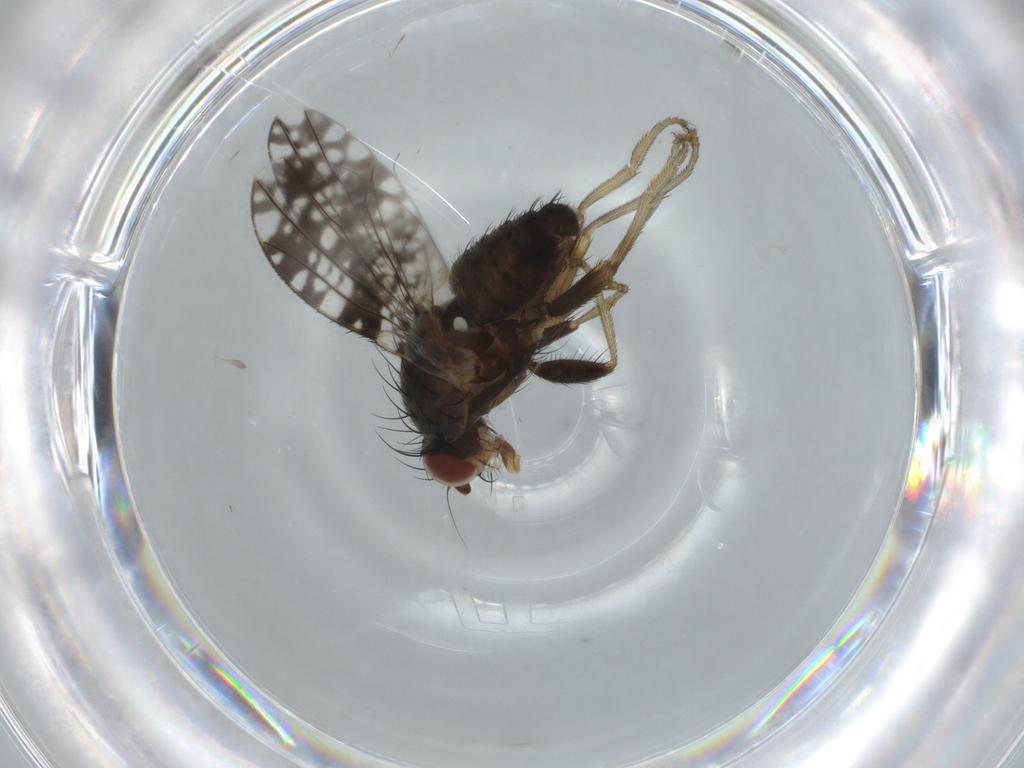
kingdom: Animalia
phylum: Arthropoda
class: Insecta
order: Diptera
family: Tephritidae
